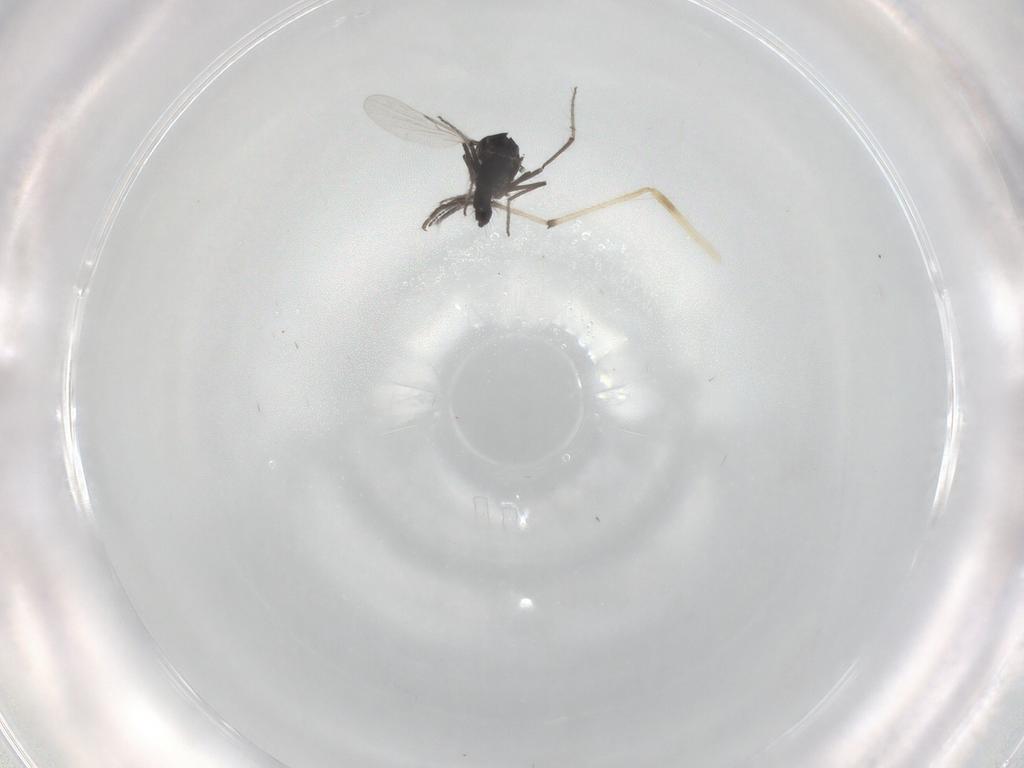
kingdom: Animalia
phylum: Arthropoda
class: Insecta
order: Diptera
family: Ceratopogonidae
